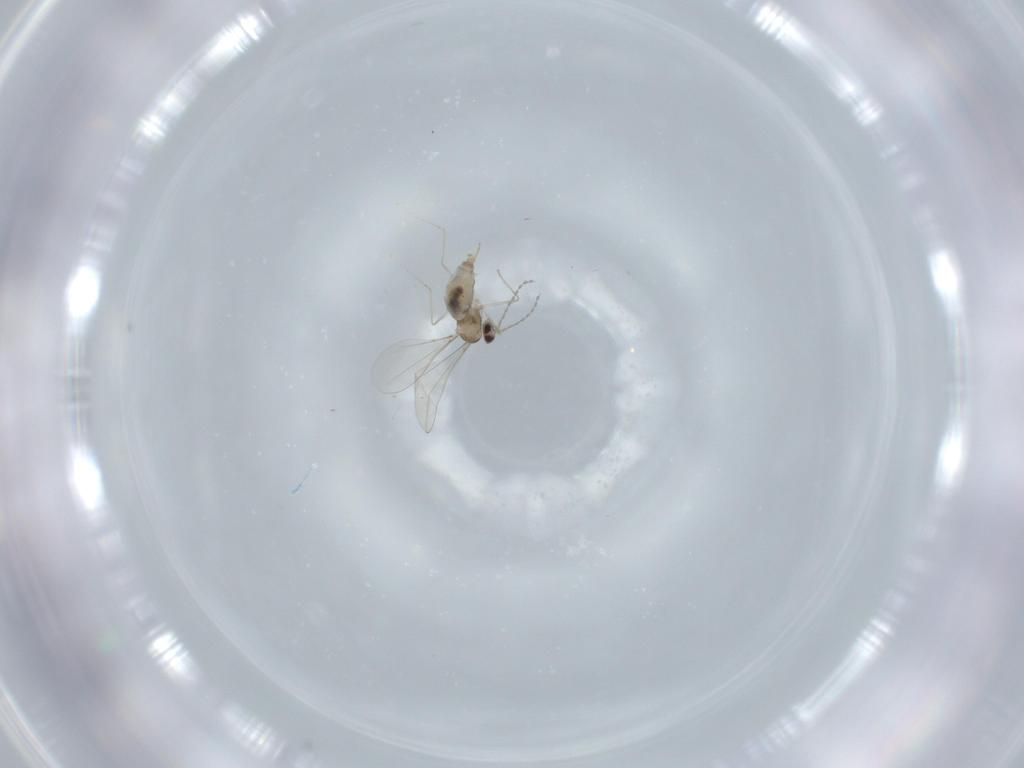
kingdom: Animalia
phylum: Arthropoda
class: Insecta
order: Diptera
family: Cecidomyiidae
